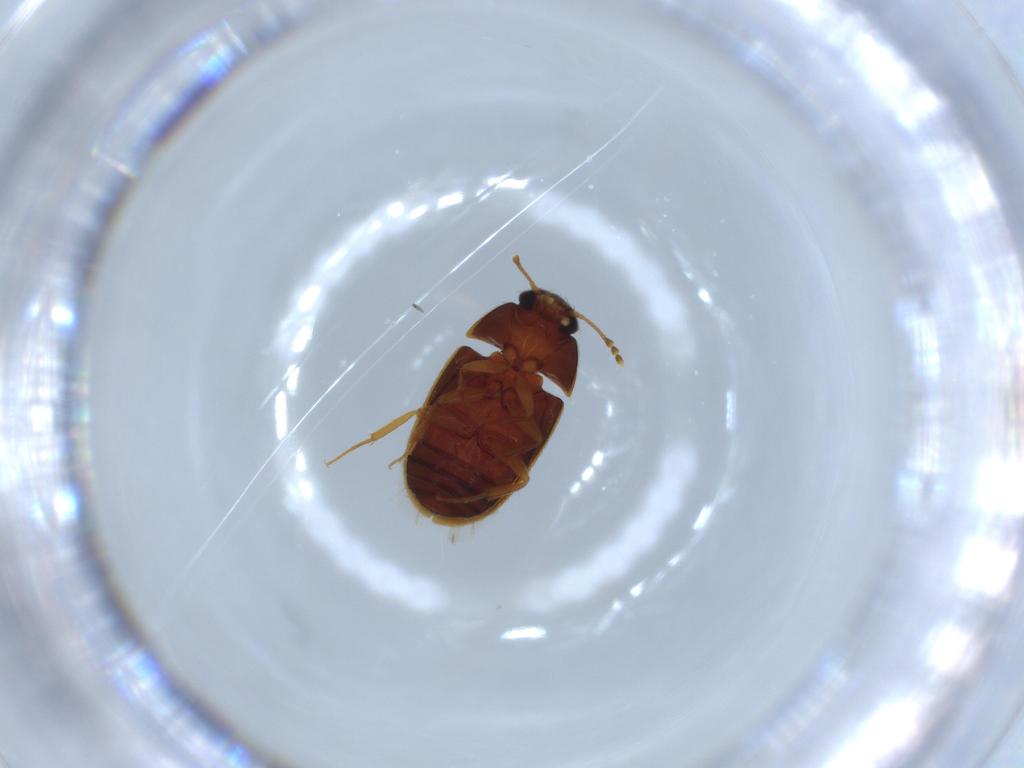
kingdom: Animalia
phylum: Arthropoda
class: Insecta
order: Coleoptera
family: Mycetophagidae
